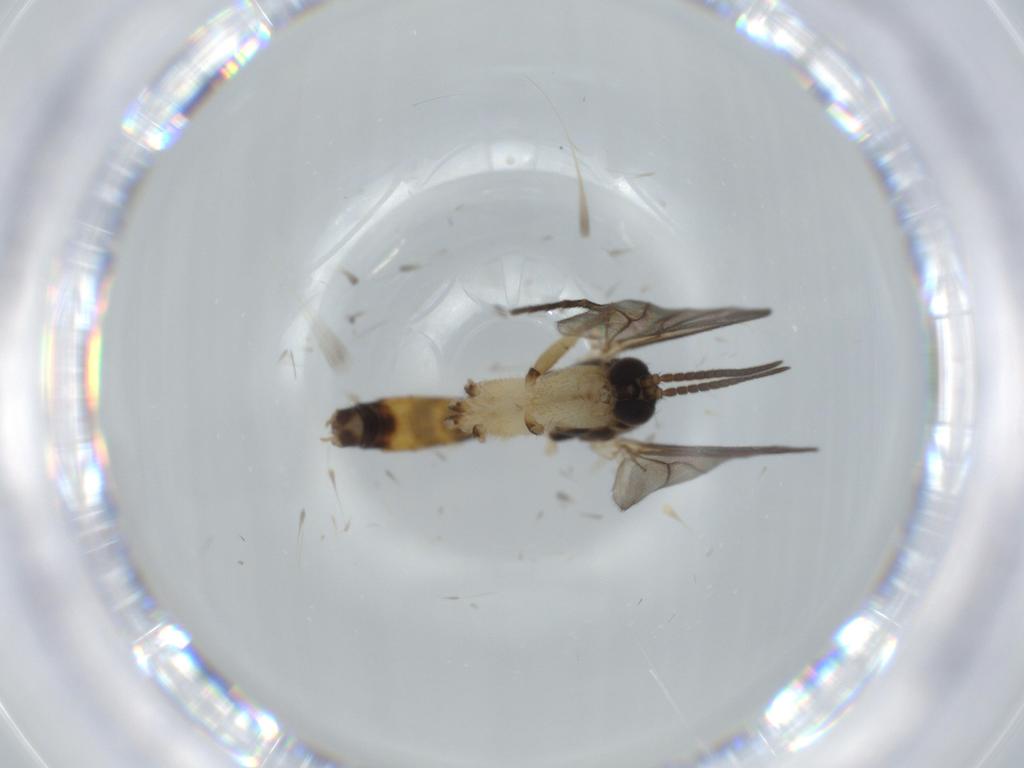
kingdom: Animalia
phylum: Arthropoda
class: Insecta
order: Diptera
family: Mycetophilidae
